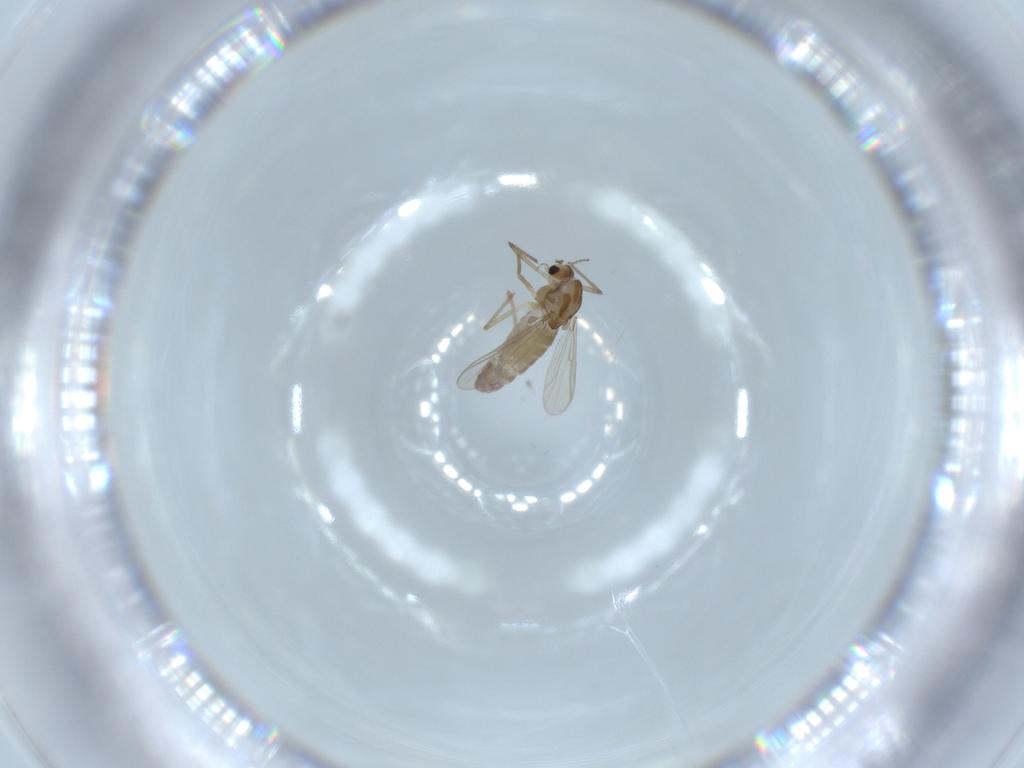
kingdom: Animalia
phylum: Arthropoda
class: Insecta
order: Diptera
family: Chironomidae
